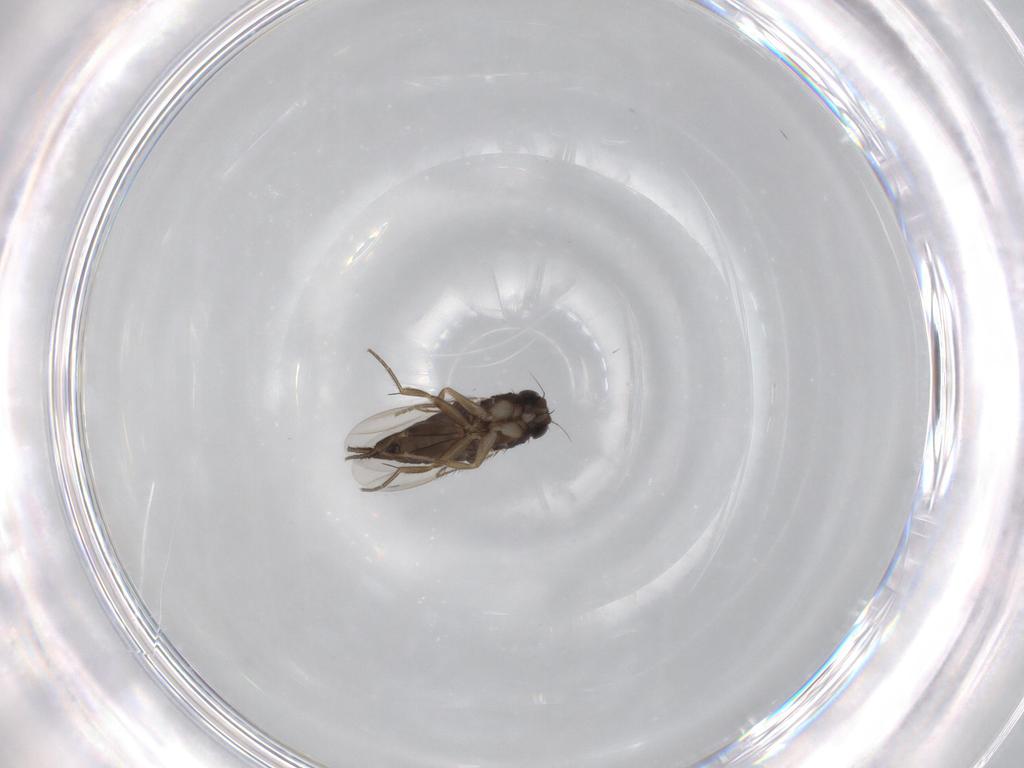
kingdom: Animalia
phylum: Arthropoda
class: Insecta
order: Diptera
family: Phoridae
